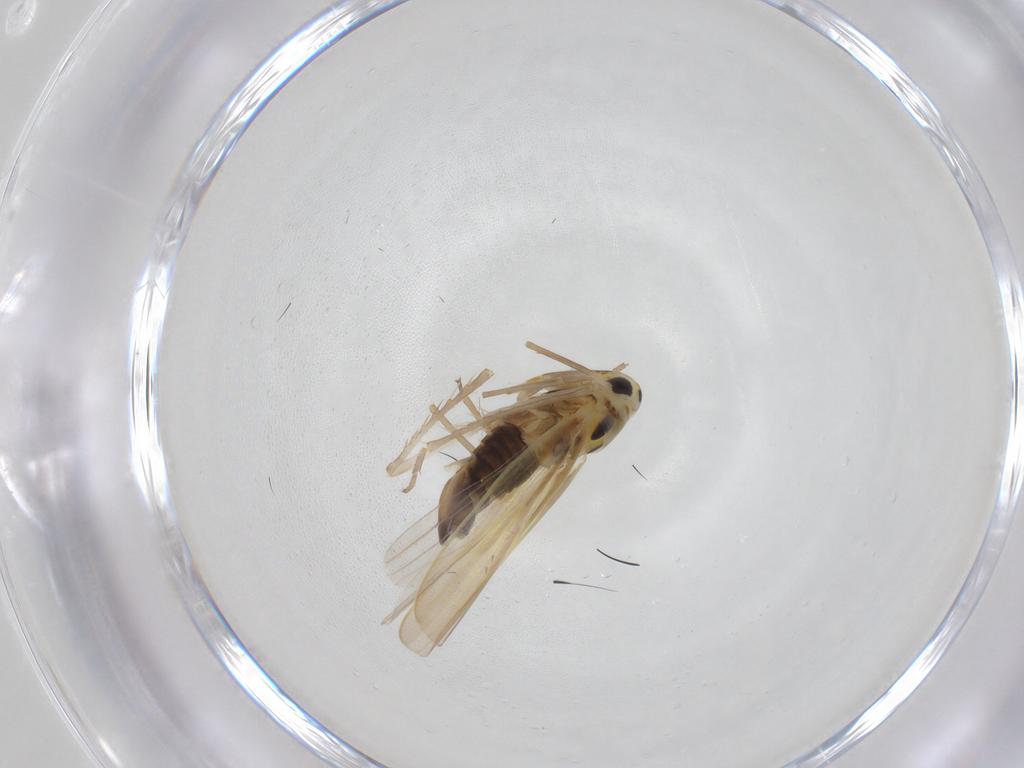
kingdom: Animalia
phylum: Arthropoda
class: Insecta
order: Hemiptera
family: Cicadellidae
